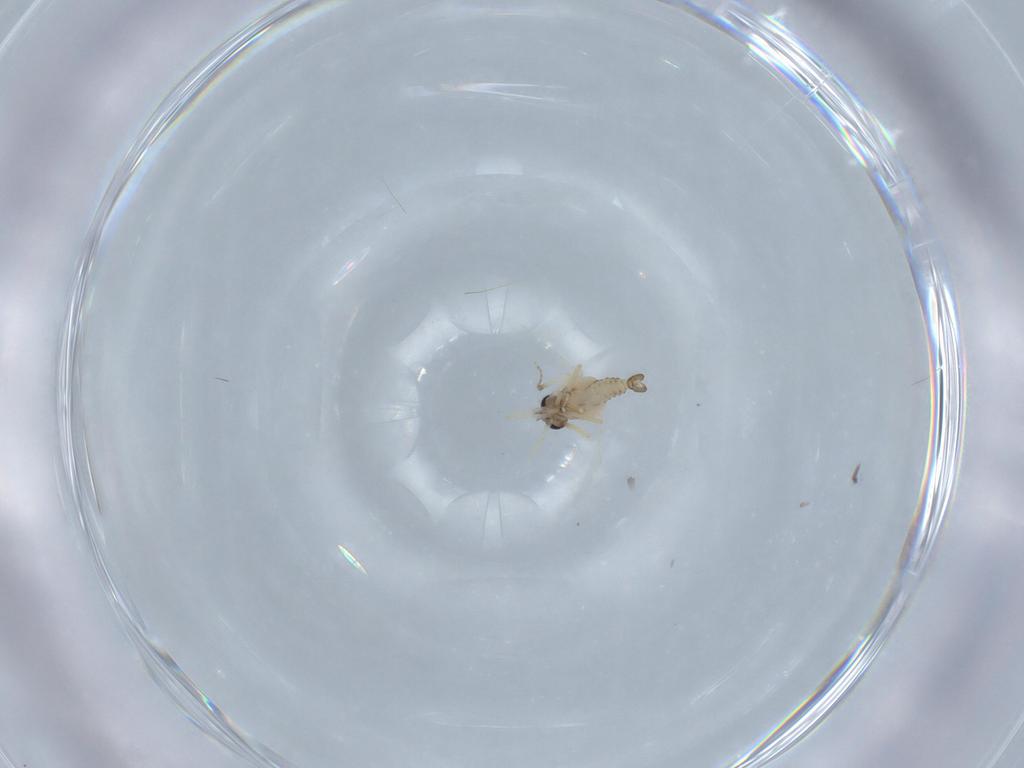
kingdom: Animalia
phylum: Arthropoda
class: Insecta
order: Diptera
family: Ceratopogonidae
